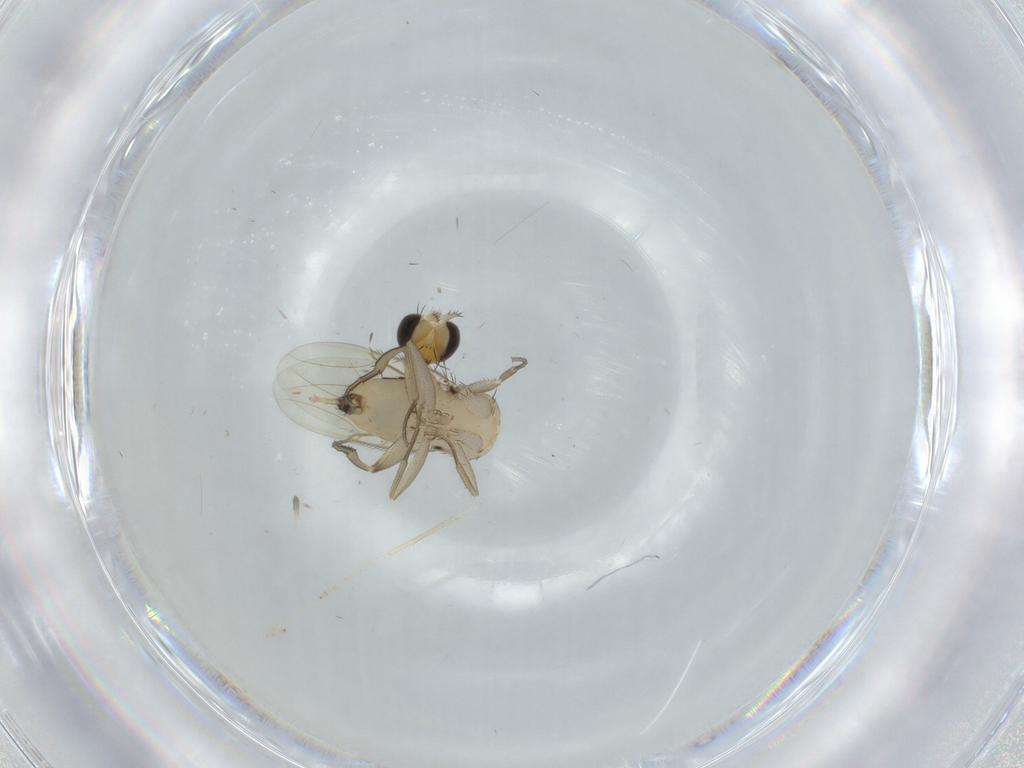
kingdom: Animalia
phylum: Arthropoda
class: Insecta
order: Diptera
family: Phoridae
